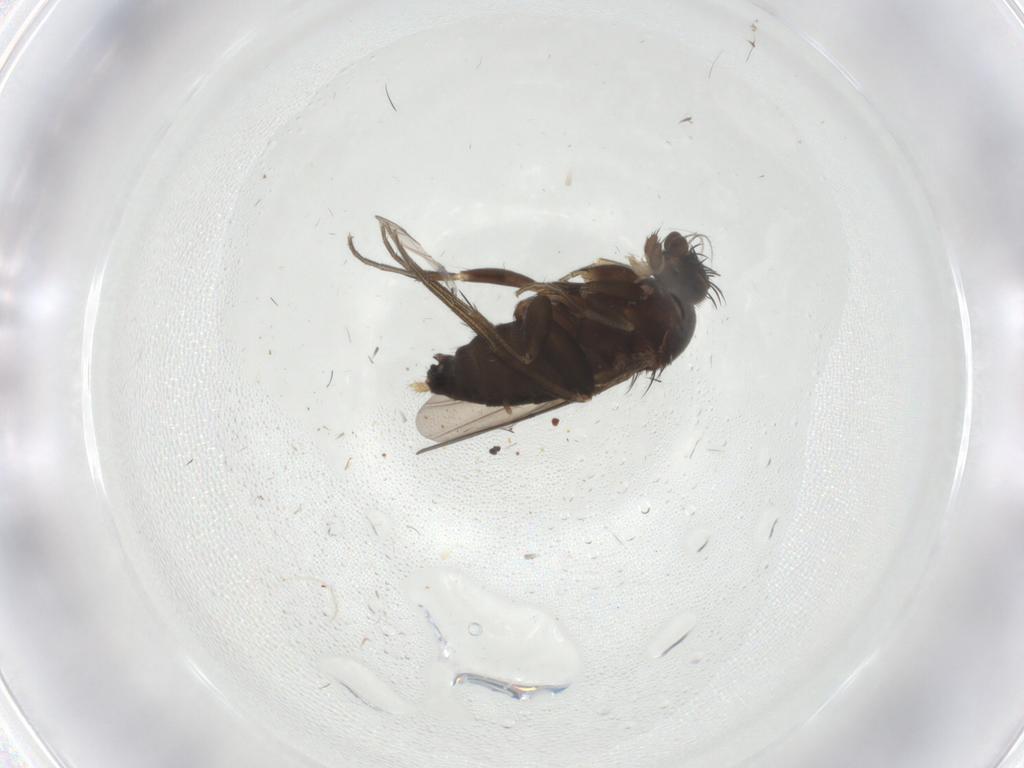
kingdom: Animalia
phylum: Arthropoda
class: Insecta
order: Diptera
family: Phoridae
